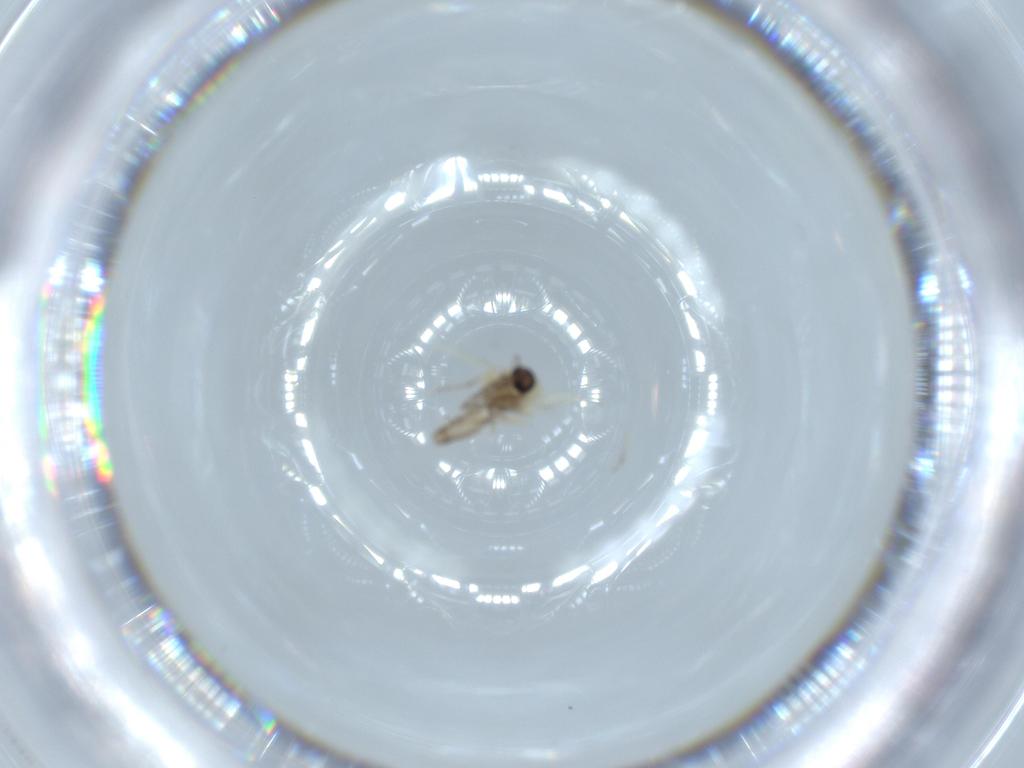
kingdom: Animalia
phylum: Arthropoda
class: Insecta
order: Diptera
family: Ceratopogonidae
